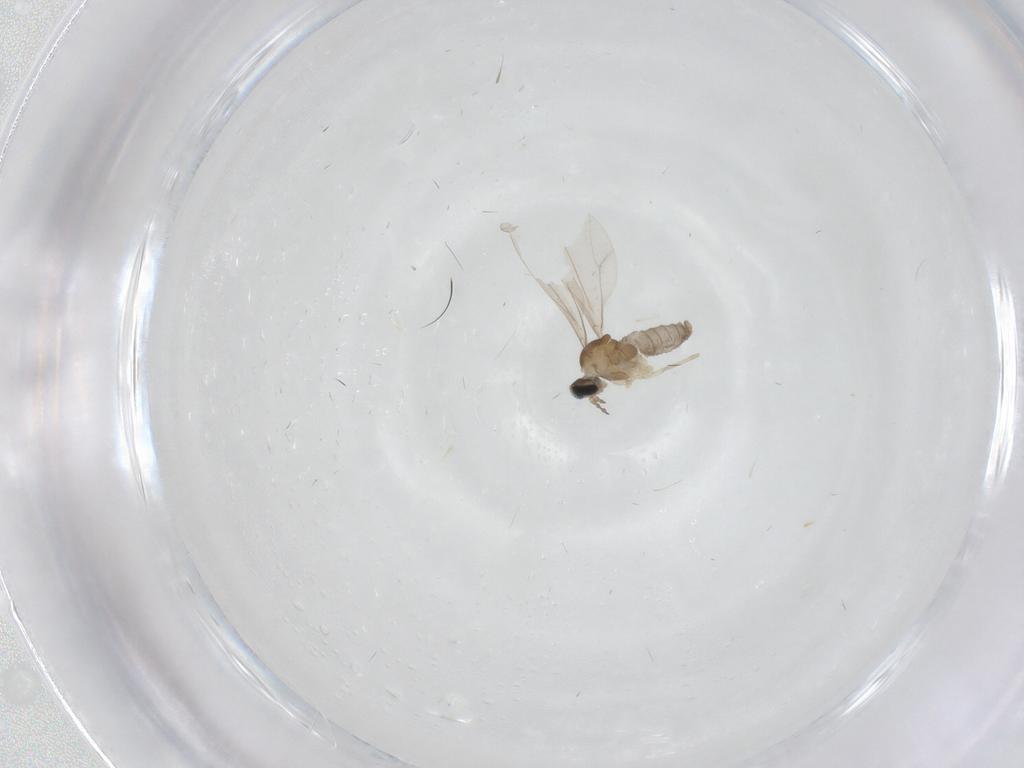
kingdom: Animalia
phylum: Arthropoda
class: Insecta
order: Diptera
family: Cecidomyiidae
